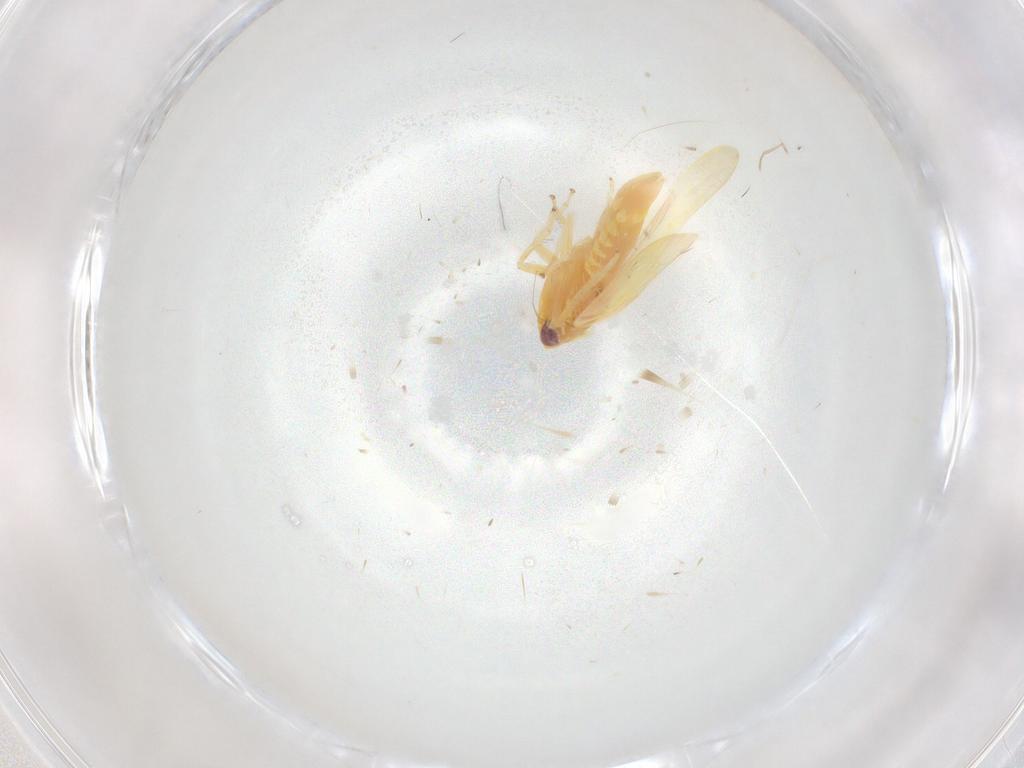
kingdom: Animalia
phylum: Arthropoda
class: Insecta
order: Hemiptera
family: Cicadellidae
